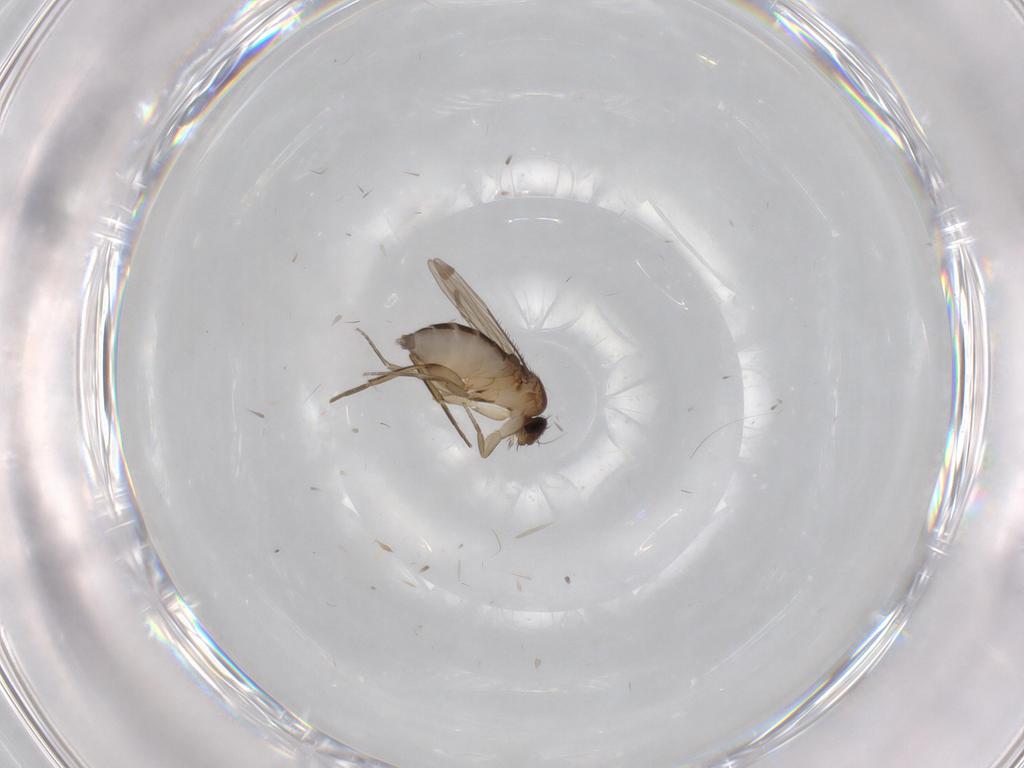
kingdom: Animalia
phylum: Arthropoda
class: Insecta
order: Diptera
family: Phoridae
